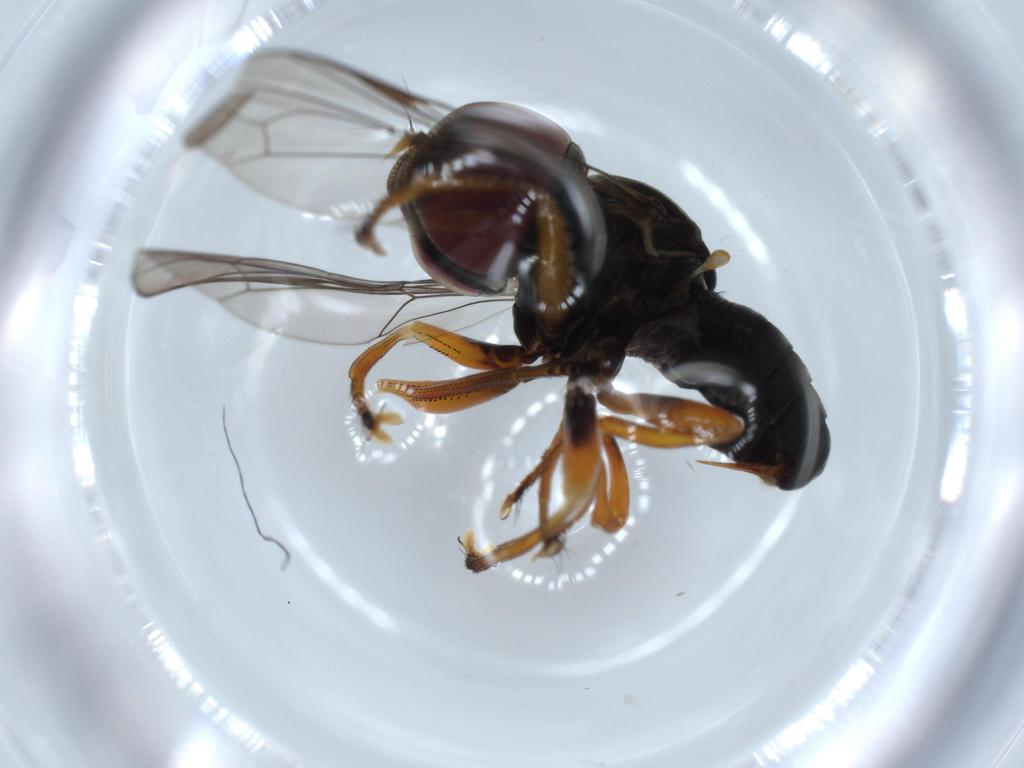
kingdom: Animalia
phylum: Arthropoda
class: Insecta
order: Diptera
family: Pipunculidae
